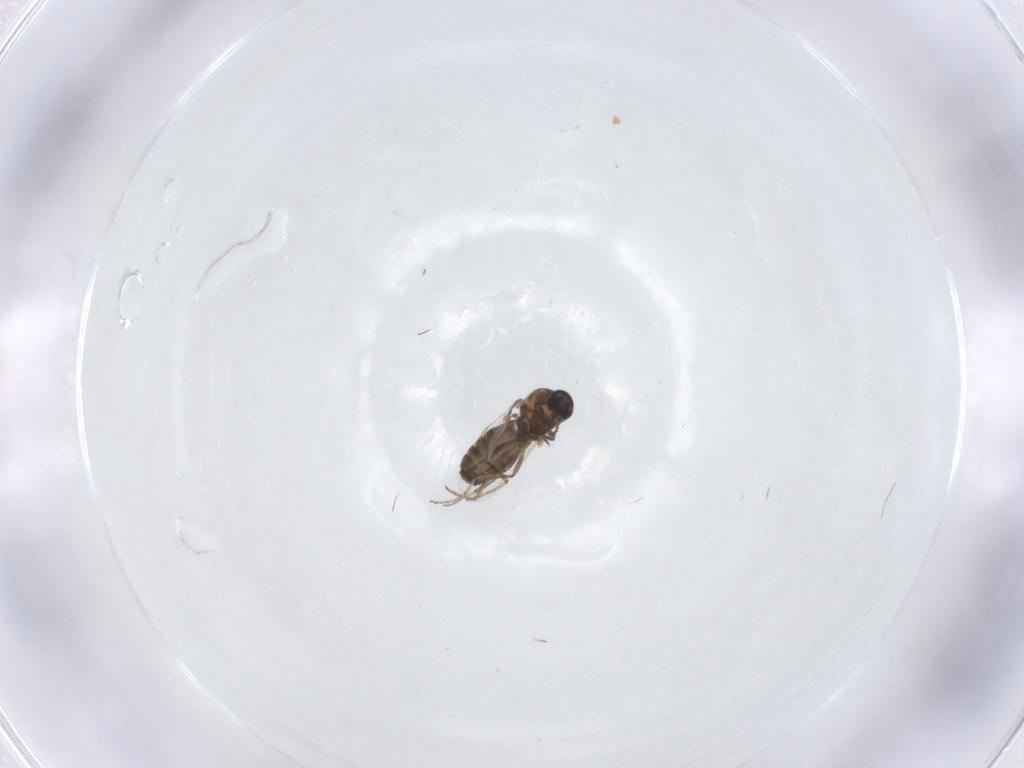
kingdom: Animalia
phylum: Arthropoda
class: Insecta
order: Diptera
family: Ceratopogonidae
